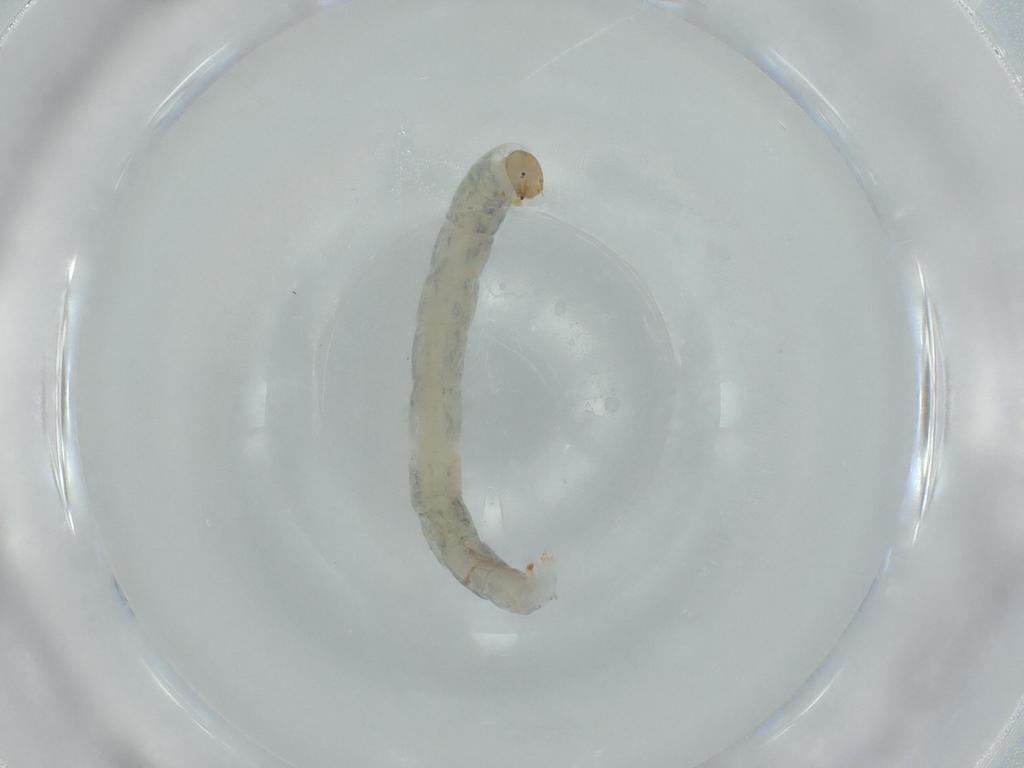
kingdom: Animalia
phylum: Arthropoda
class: Insecta
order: Diptera
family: Chironomidae
